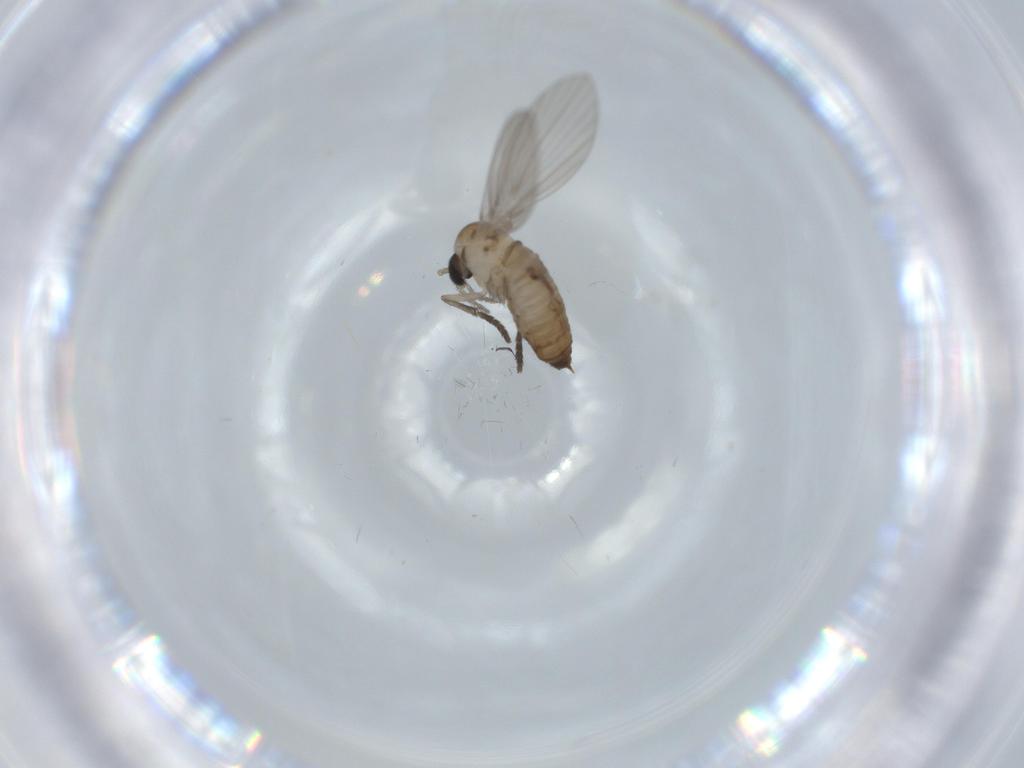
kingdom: Animalia
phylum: Arthropoda
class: Insecta
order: Diptera
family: Psychodidae
